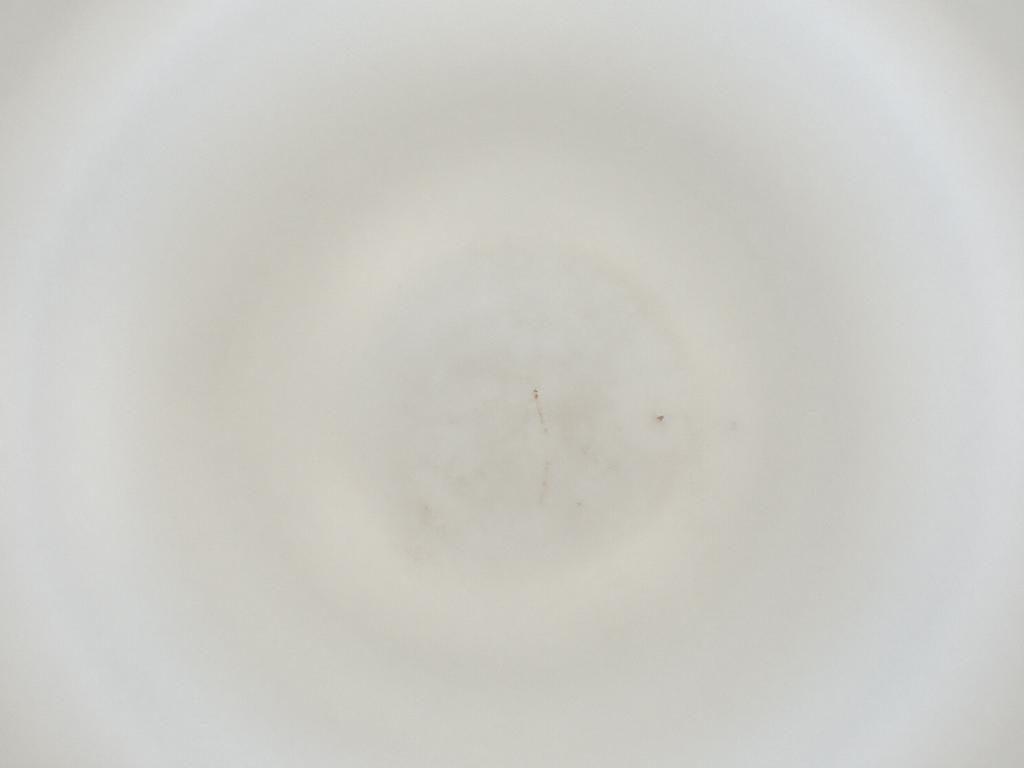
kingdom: Animalia
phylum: Arthropoda
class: Insecta
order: Diptera
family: Cecidomyiidae
